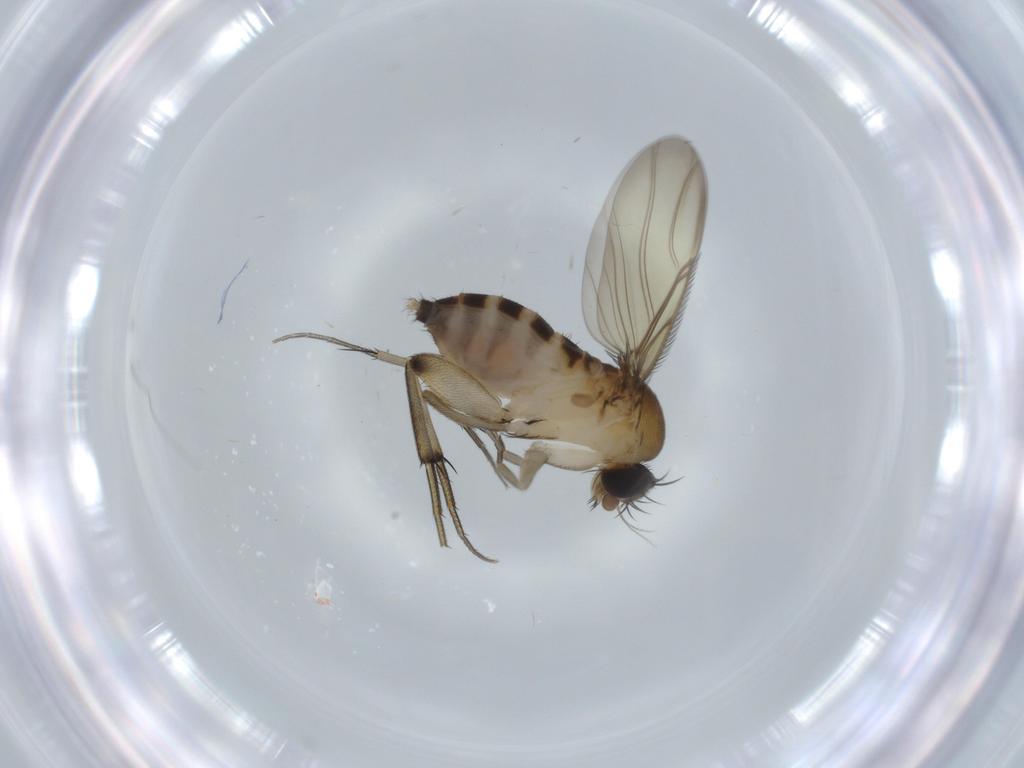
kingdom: Animalia
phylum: Arthropoda
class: Insecta
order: Diptera
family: Phoridae
